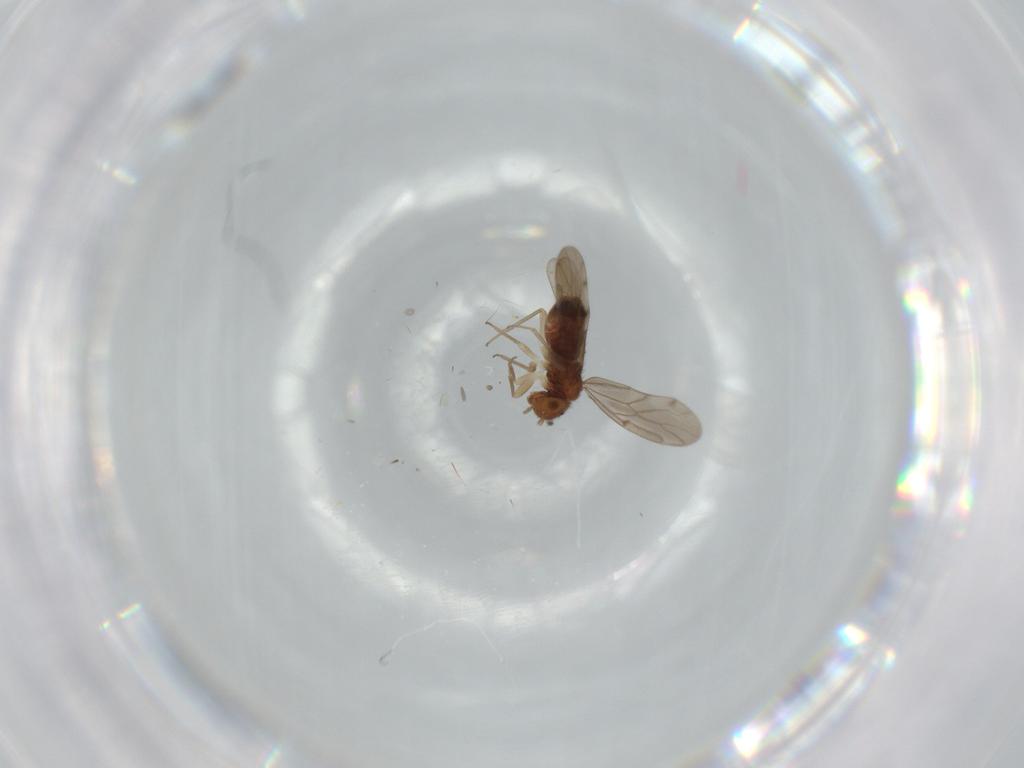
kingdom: Animalia
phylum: Arthropoda
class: Insecta
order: Psocodea
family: Ectopsocidae
